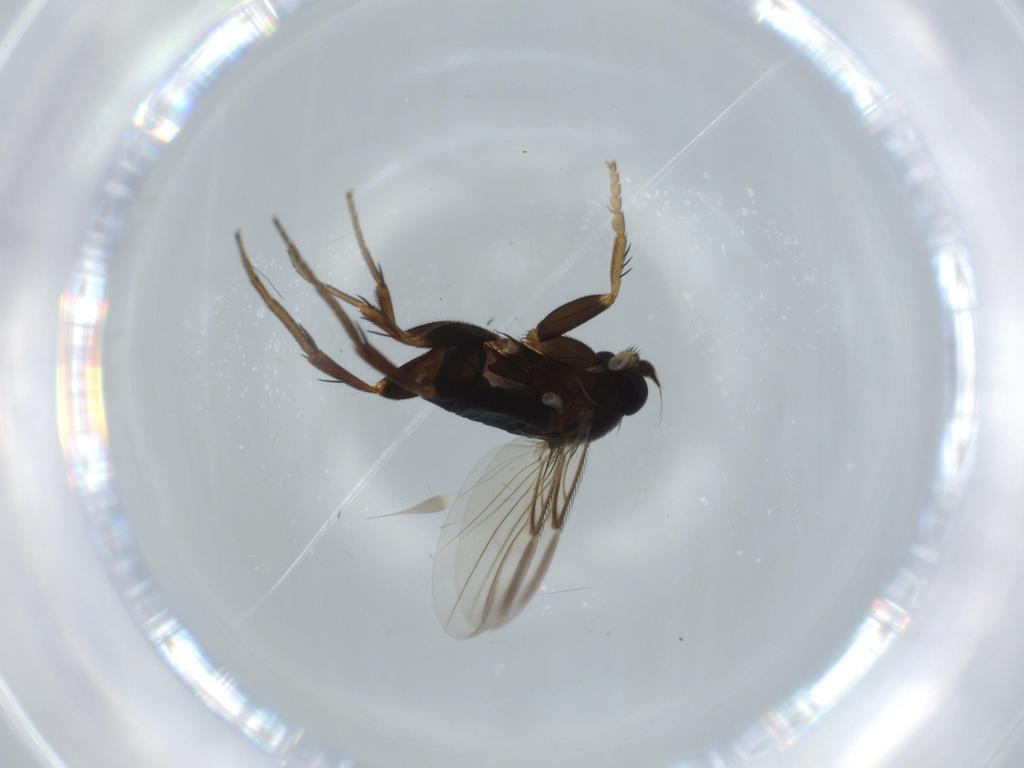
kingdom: Animalia
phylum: Arthropoda
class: Insecta
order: Diptera
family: Phoridae
